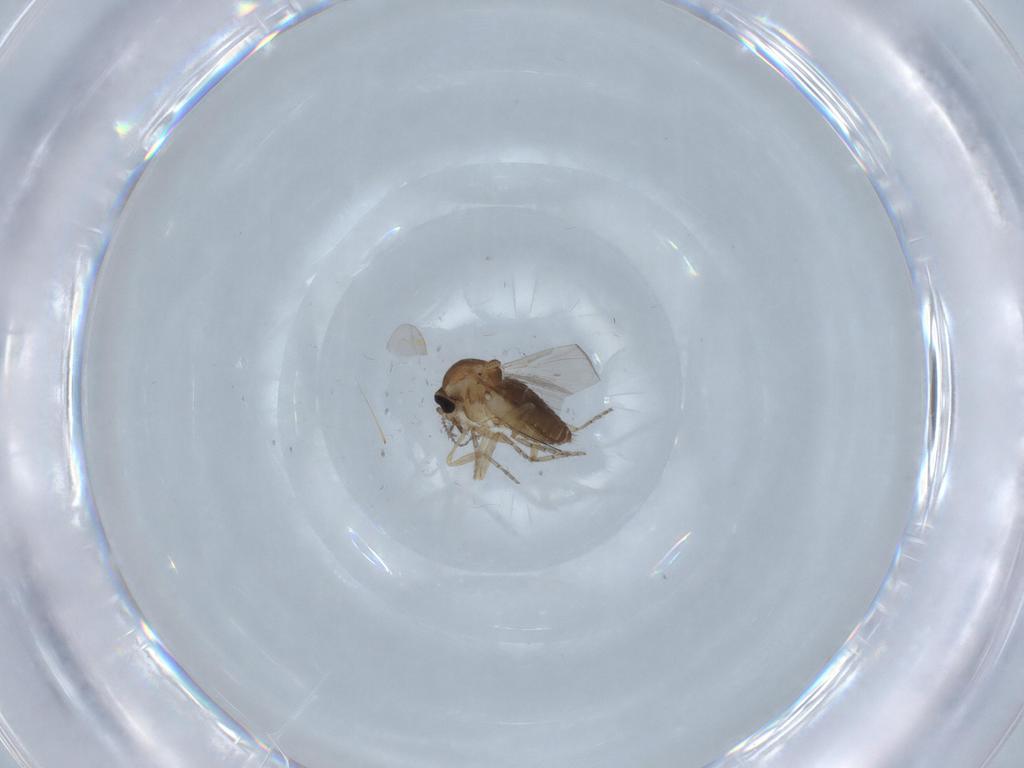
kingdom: Animalia
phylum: Arthropoda
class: Insecta
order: Diptera
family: Ceratopogonidae
